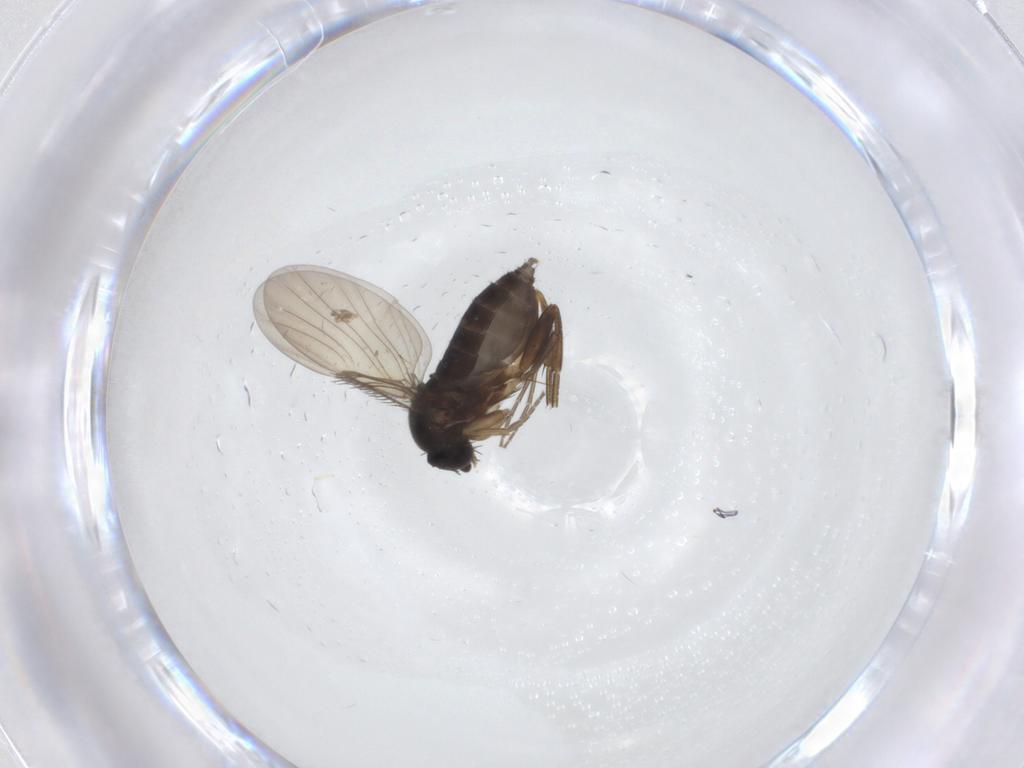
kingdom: Animalia
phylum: Arthropoda
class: Insecta
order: Diptera
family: Phoridae
